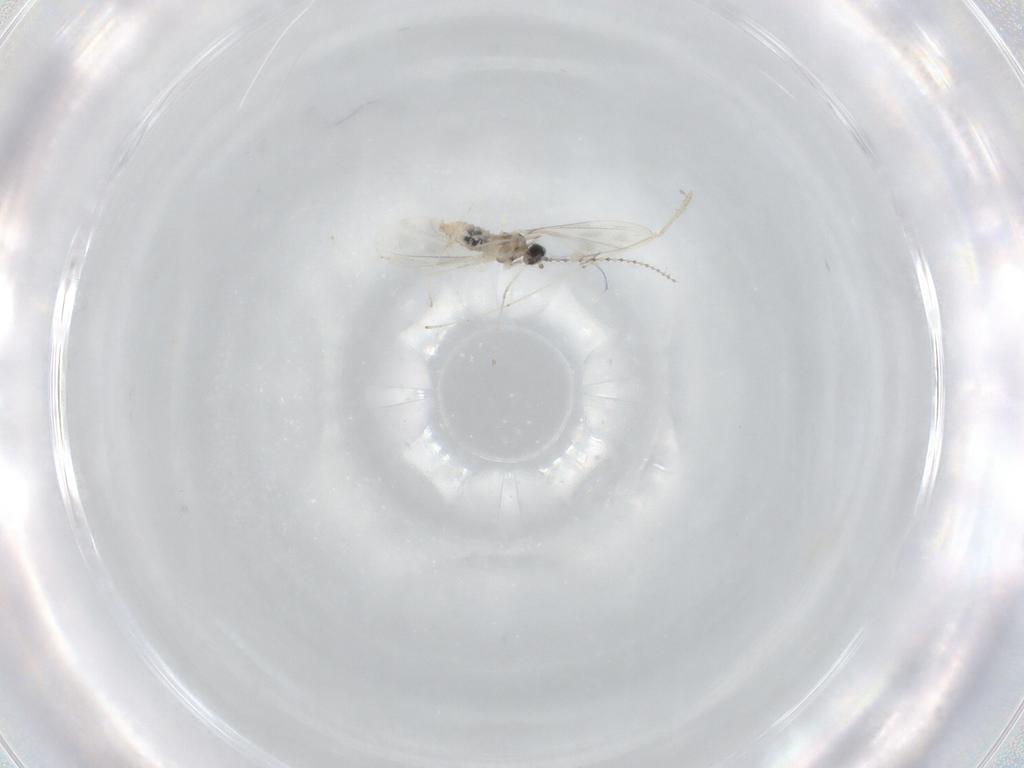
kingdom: Animalia
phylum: Arthropoda
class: Insecta
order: Diptera
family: Cecidomyiidae
